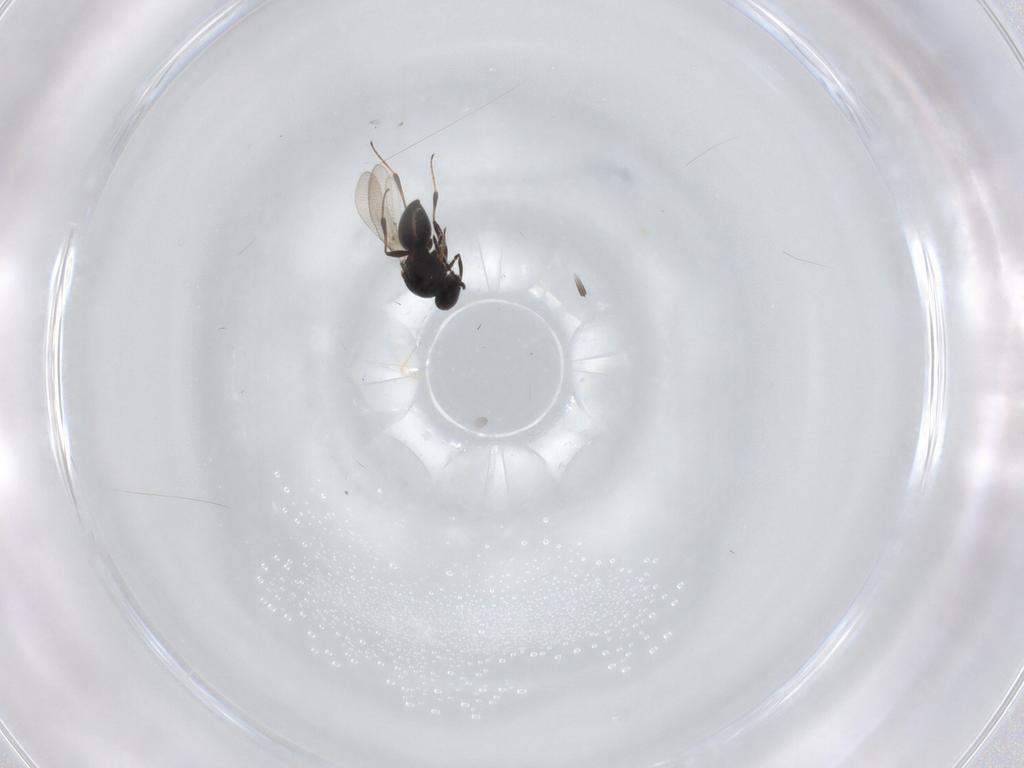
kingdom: Animalia
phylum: Arthropoda
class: Insecta
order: Hymenoptera
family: Platygastridae
